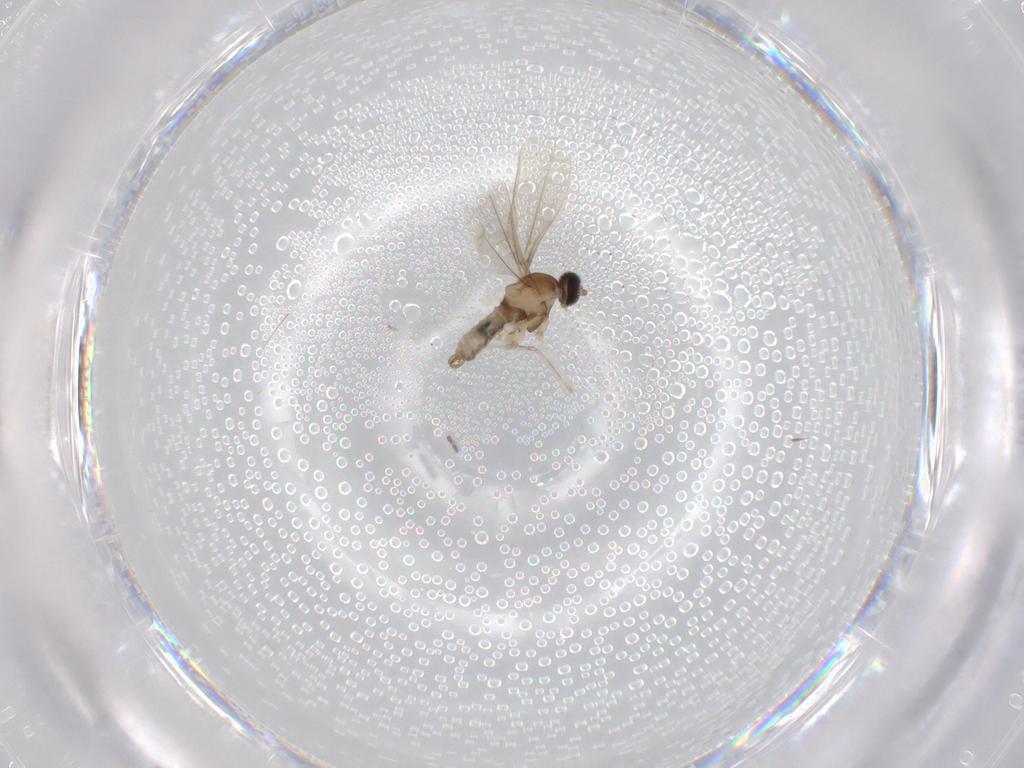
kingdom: Animalia
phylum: Arthropoda
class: Insecta
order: Diptera
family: Cecidomyiidae
